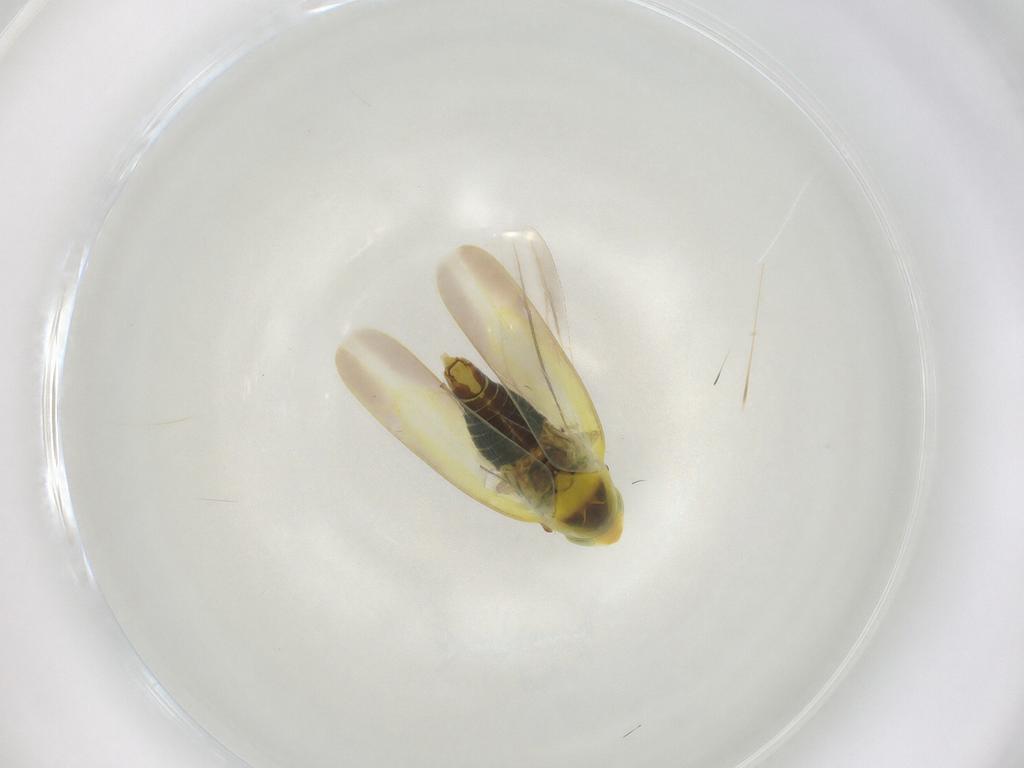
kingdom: Animalia
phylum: Arthropoda
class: Insecta
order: Hemiptera
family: Cicadellidae
